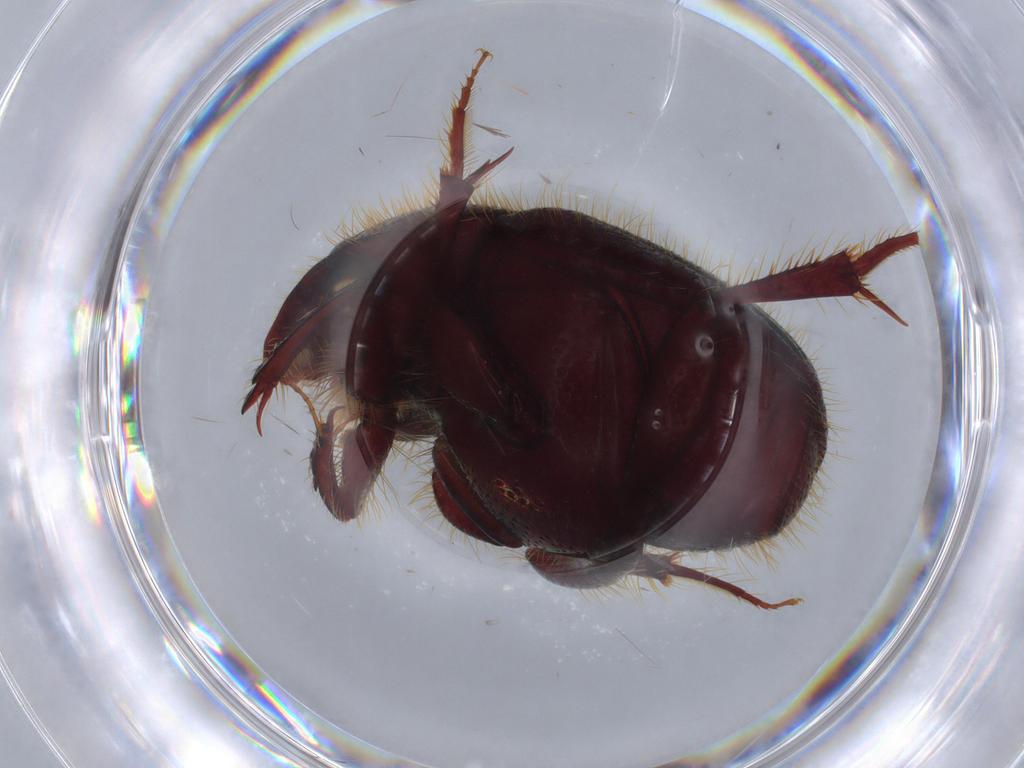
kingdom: Animalia
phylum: Arthropoda
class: Insecta
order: Coleoptera
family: Scarabaeidae
